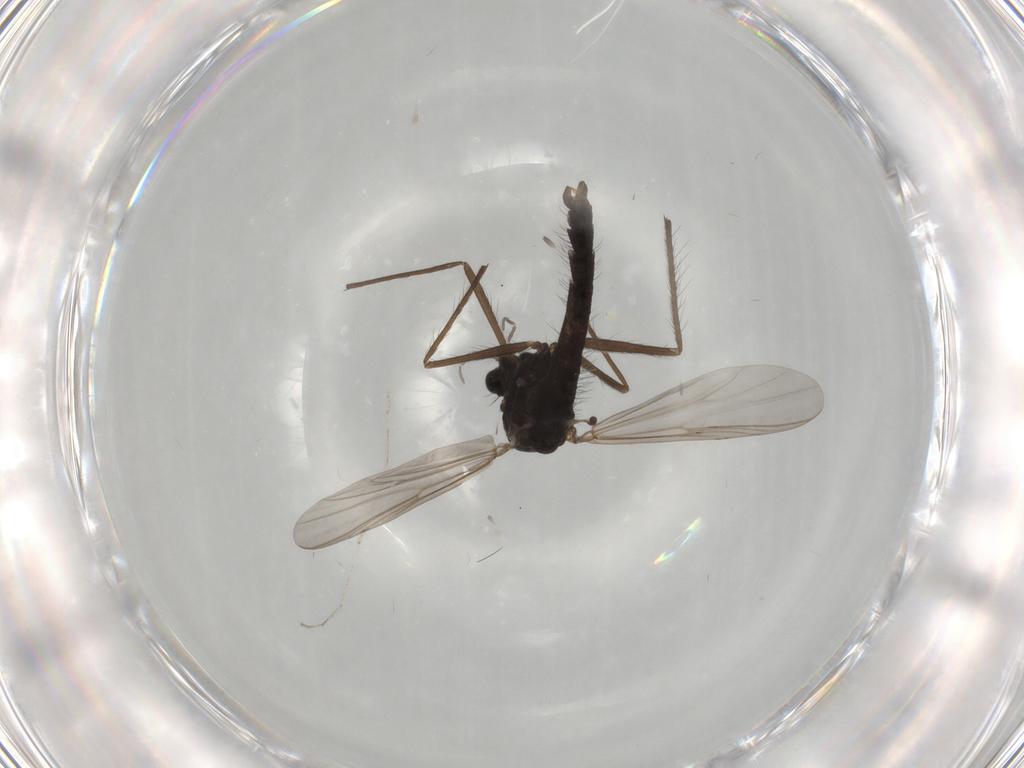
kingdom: Animalia
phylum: Arthropoda
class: Insecta
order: Diptera
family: Chironomidae
